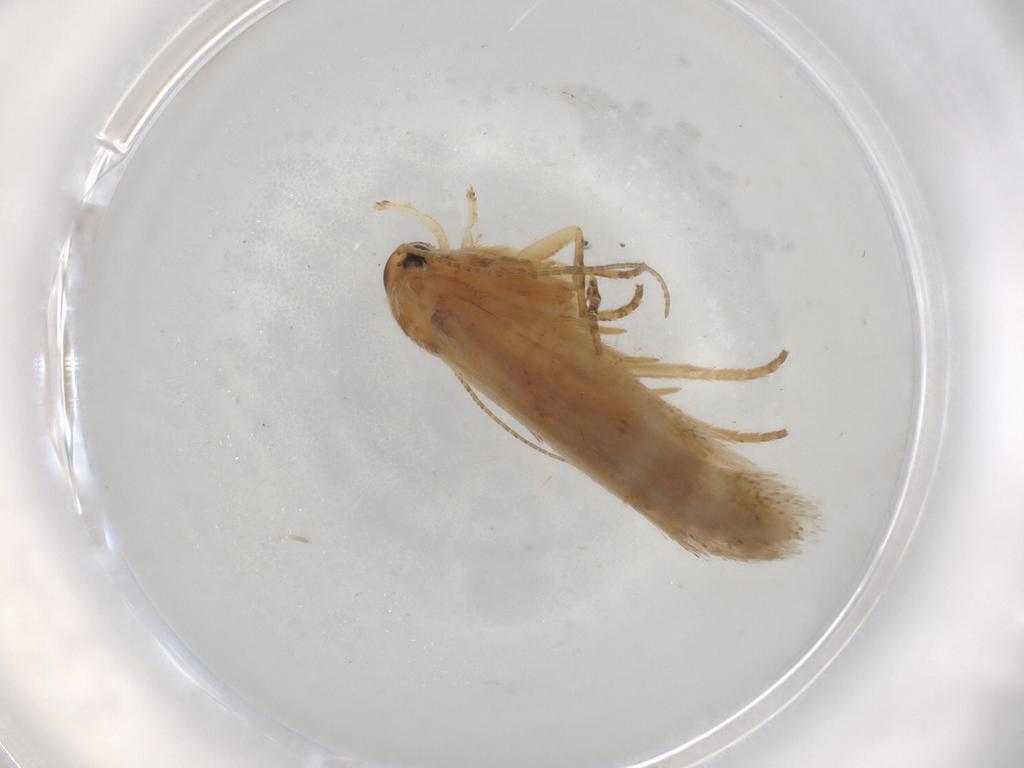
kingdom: Animalia
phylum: Arthropoda
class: Insecta
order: Lepidoptera
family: Gelechiidae
